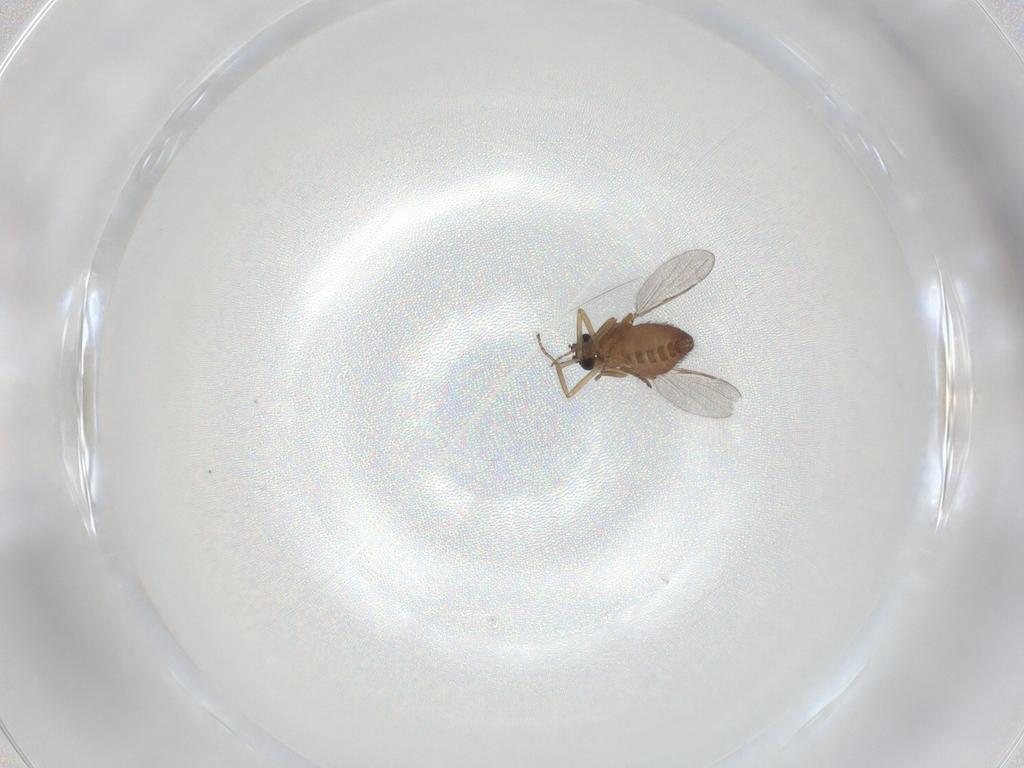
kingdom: Animalia
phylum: Arthropoda
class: Insecta
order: Diptera
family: Ceratopogonidae
